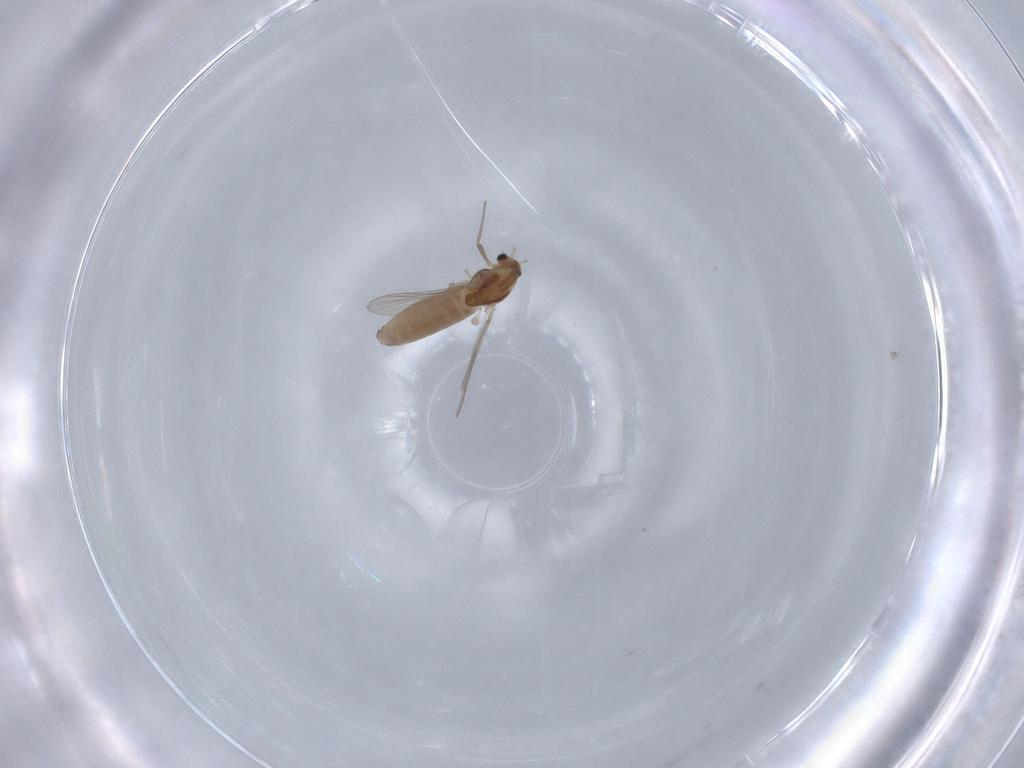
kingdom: Animalia
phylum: Arthropoda
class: Insecta
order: Diptera
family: Chironomidae
